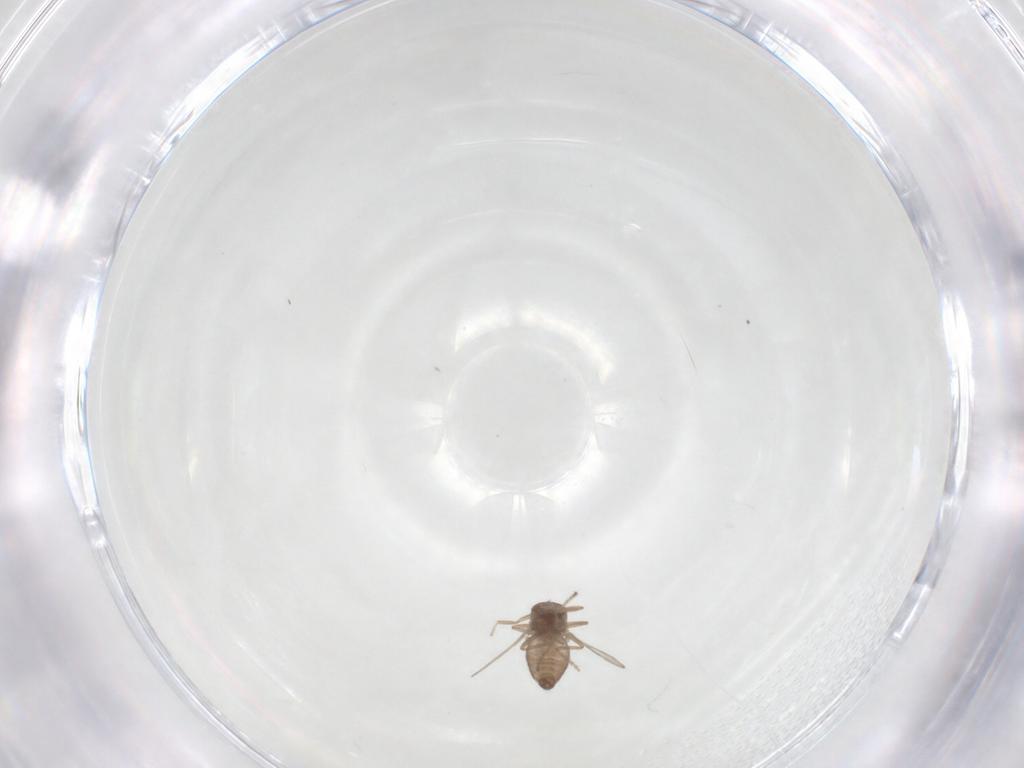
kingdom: Animalia
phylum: Arthropoda
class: Insecta
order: Diptera
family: Ceratopogonidae
